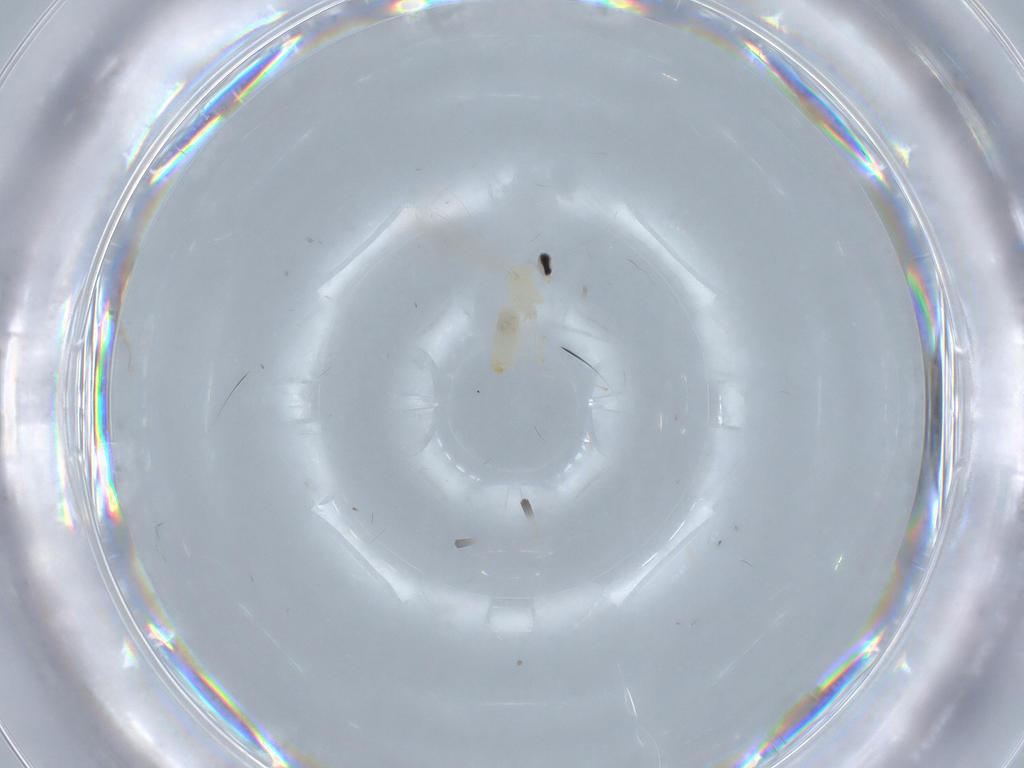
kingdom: Animalia
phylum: Arthropoda
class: Insecta
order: Diptera
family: Cecidomyiidae
